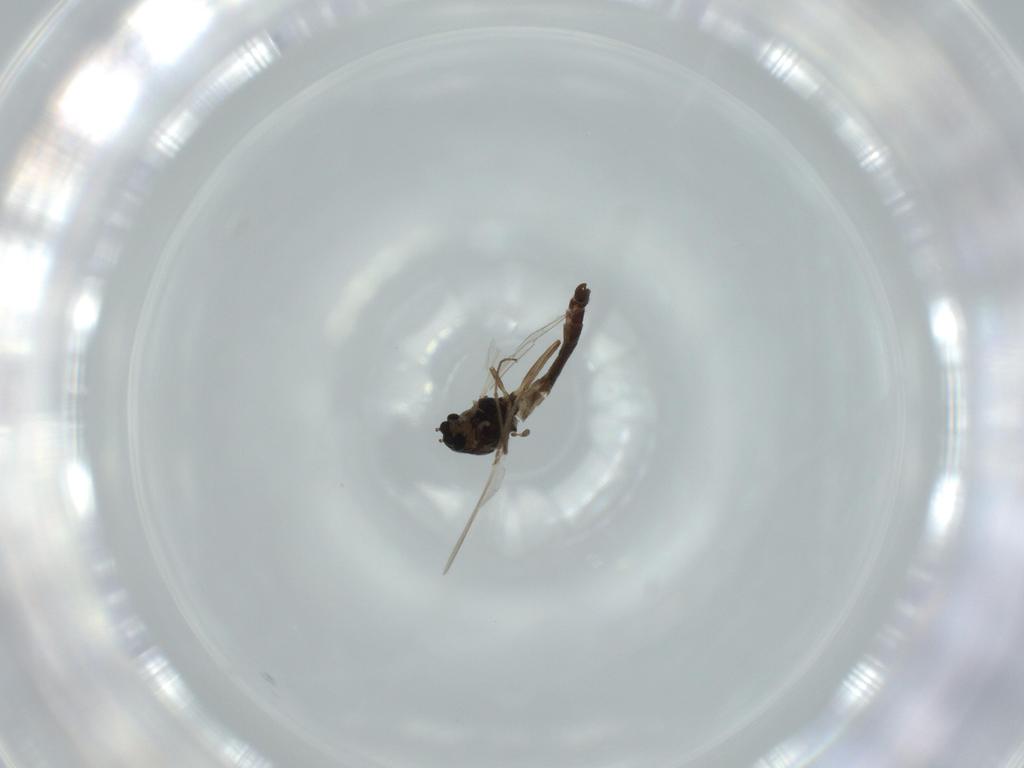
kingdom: Animalia
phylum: Arthropoda
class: Insecta
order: Diptera
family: Chironomidae
